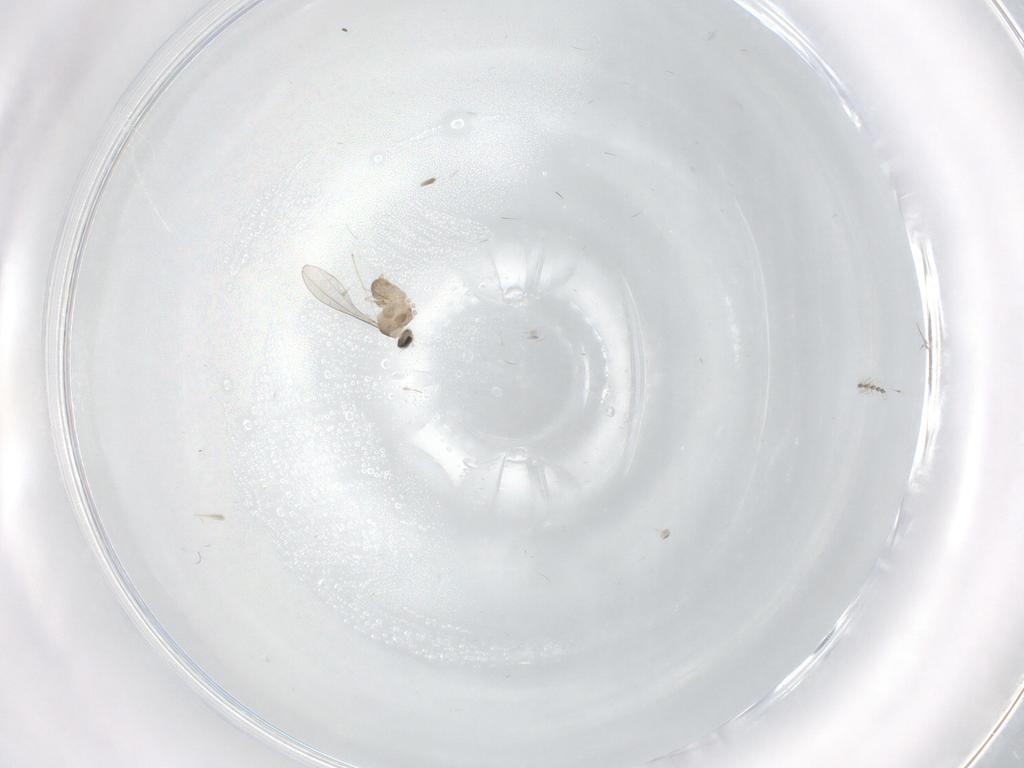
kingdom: Animalia
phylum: Arthropoda
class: Insecta
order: Diptera
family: Cecidomyiidae
